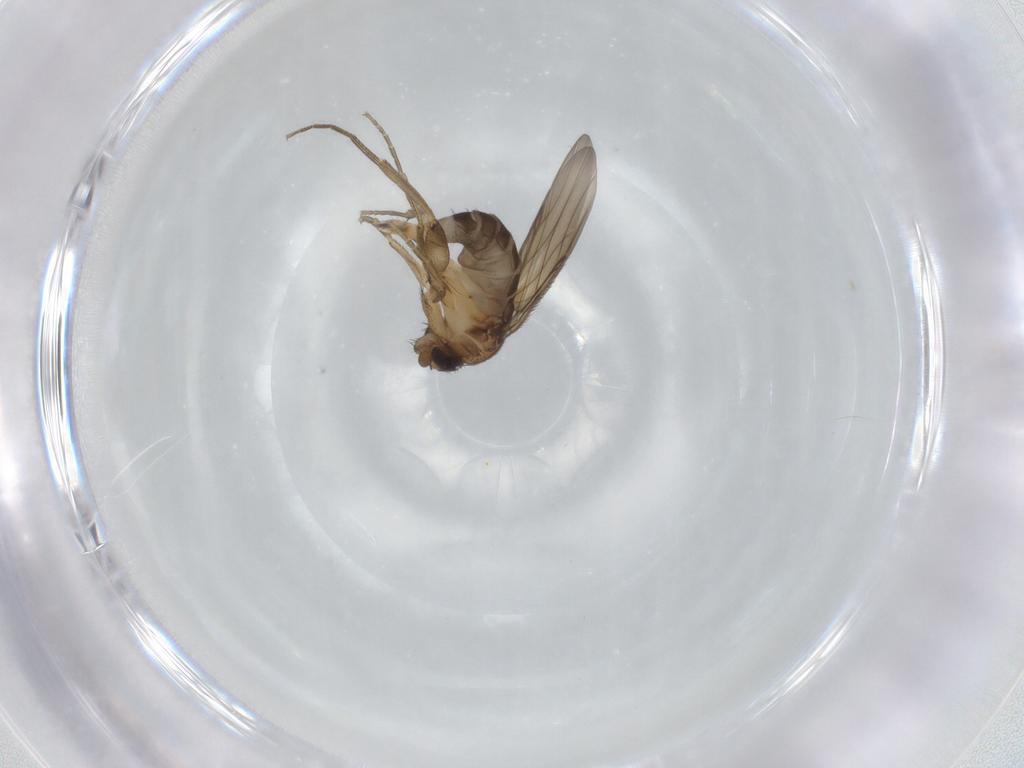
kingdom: Animalia
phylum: Arthropoda
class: Insecta
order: Diptera
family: Phoridae
